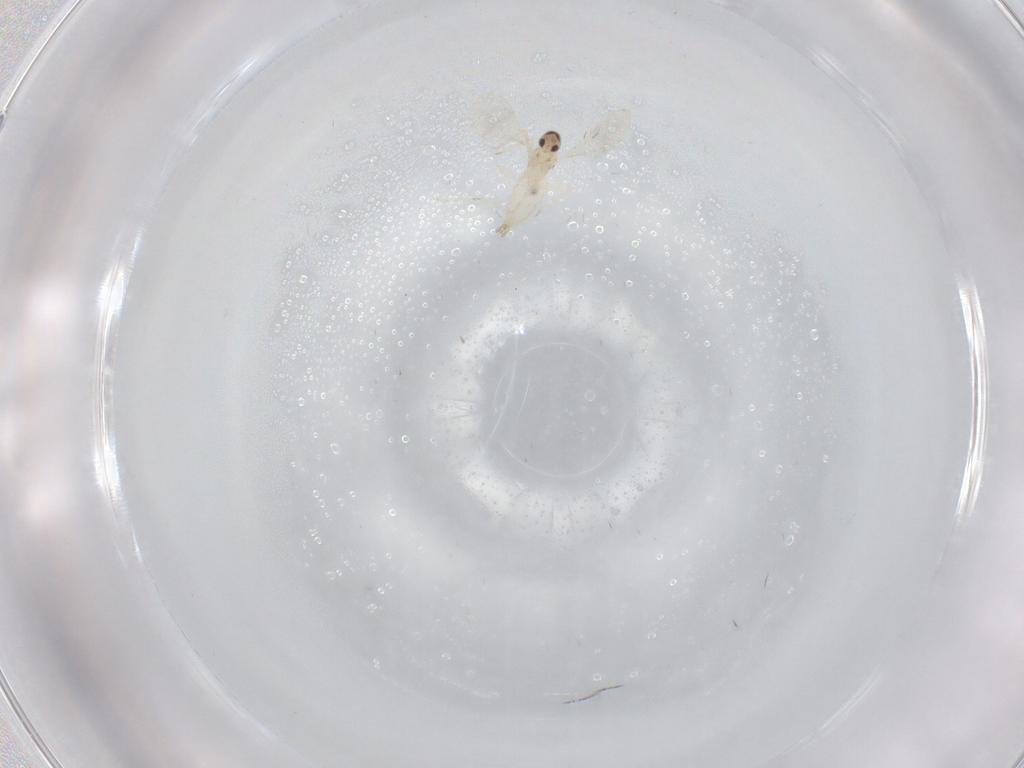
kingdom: Animalia
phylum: Arthropoda
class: Insecta
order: Diptera
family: Cecidomyiidae
